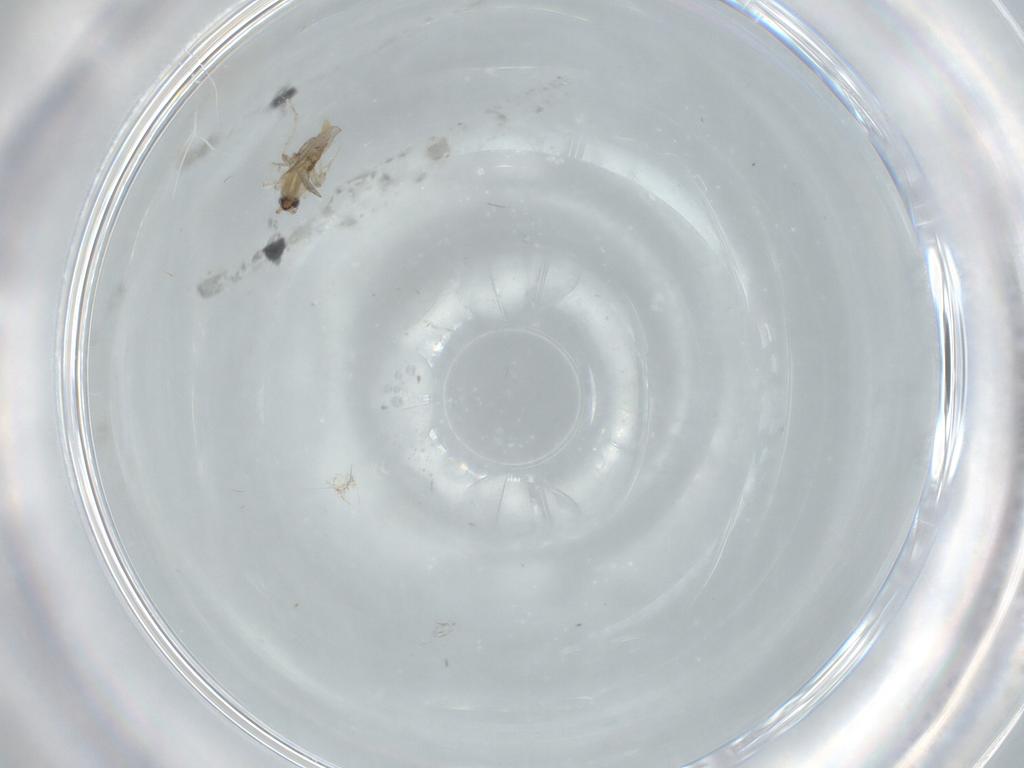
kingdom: Animalia
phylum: Arthropoda
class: Insecta
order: Diptera
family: Cecidomyiidae
